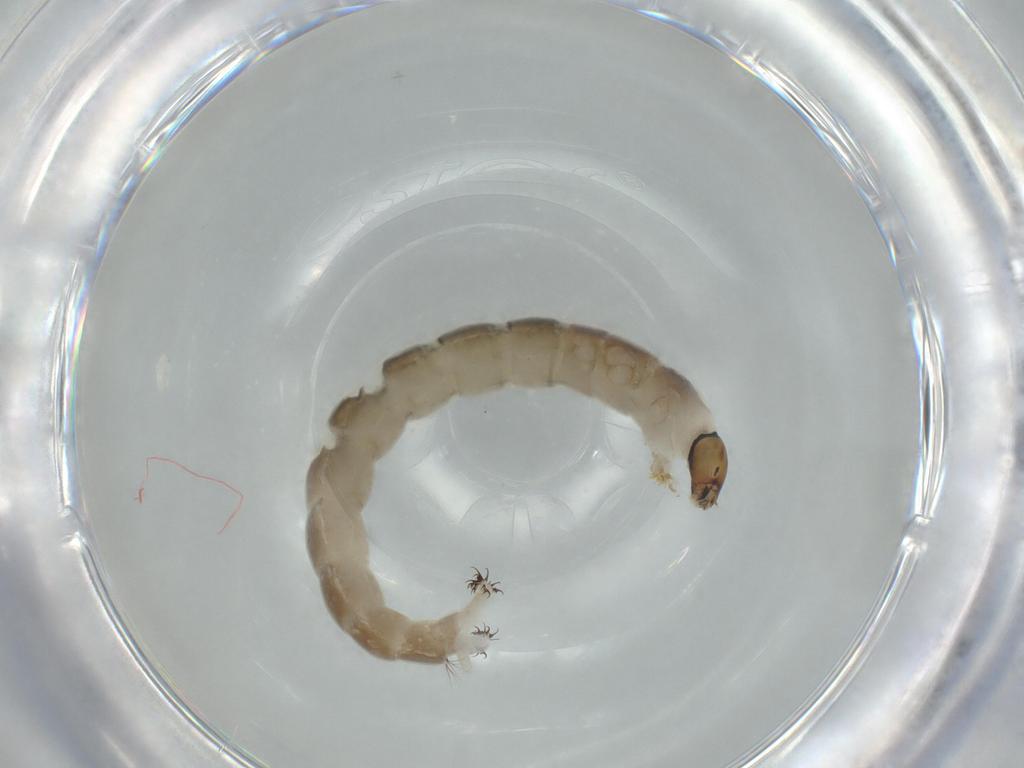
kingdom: Animalia
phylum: Arthropoda
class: Insecta
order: Diptera
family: Chironomidae
